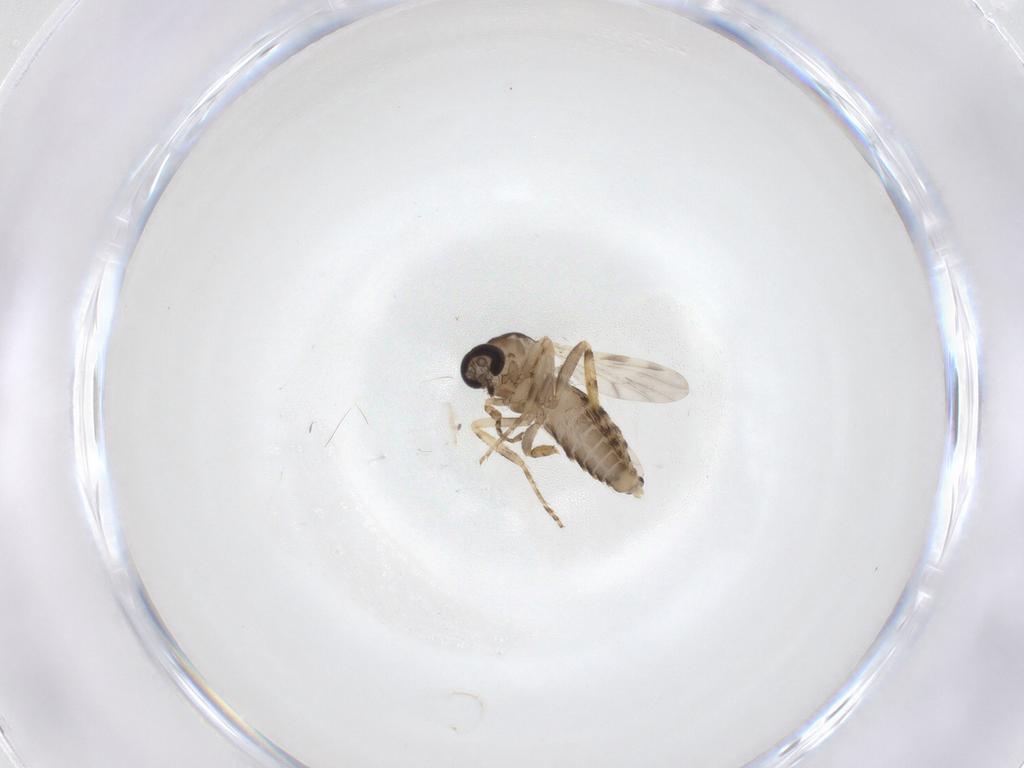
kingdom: Animalia
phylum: Arthropoda
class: Insecta
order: Diptera
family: Ceratopogonidae
